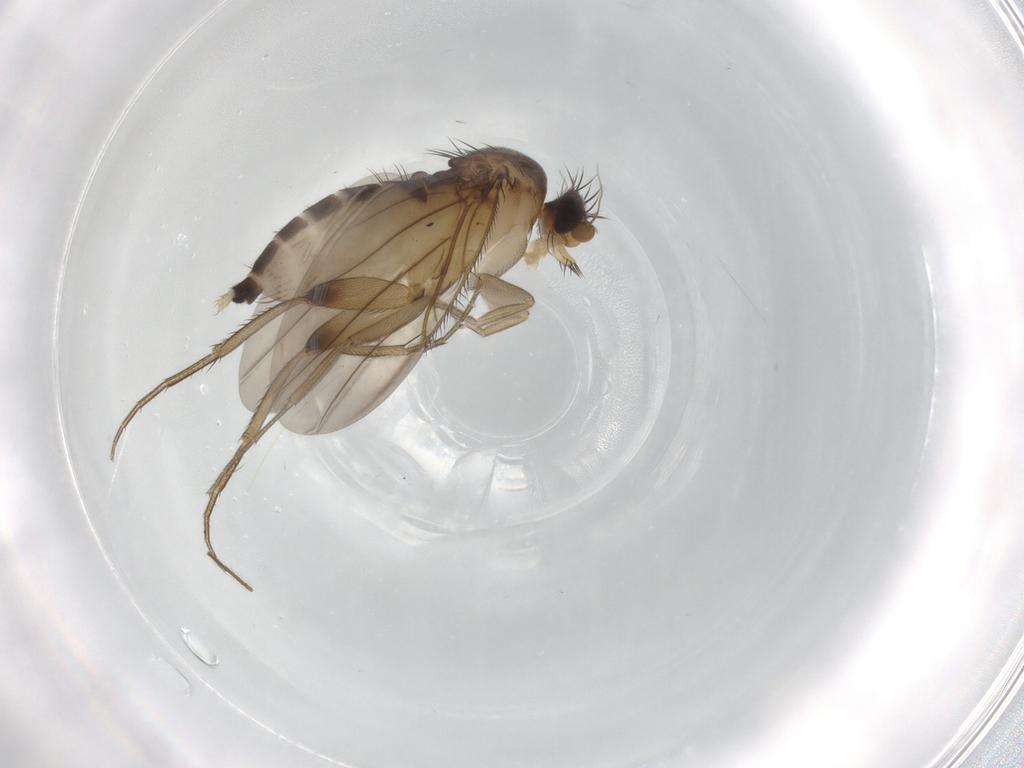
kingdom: Animalia
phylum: Arthropoda
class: Insecta
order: Diptera
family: Phoridae
